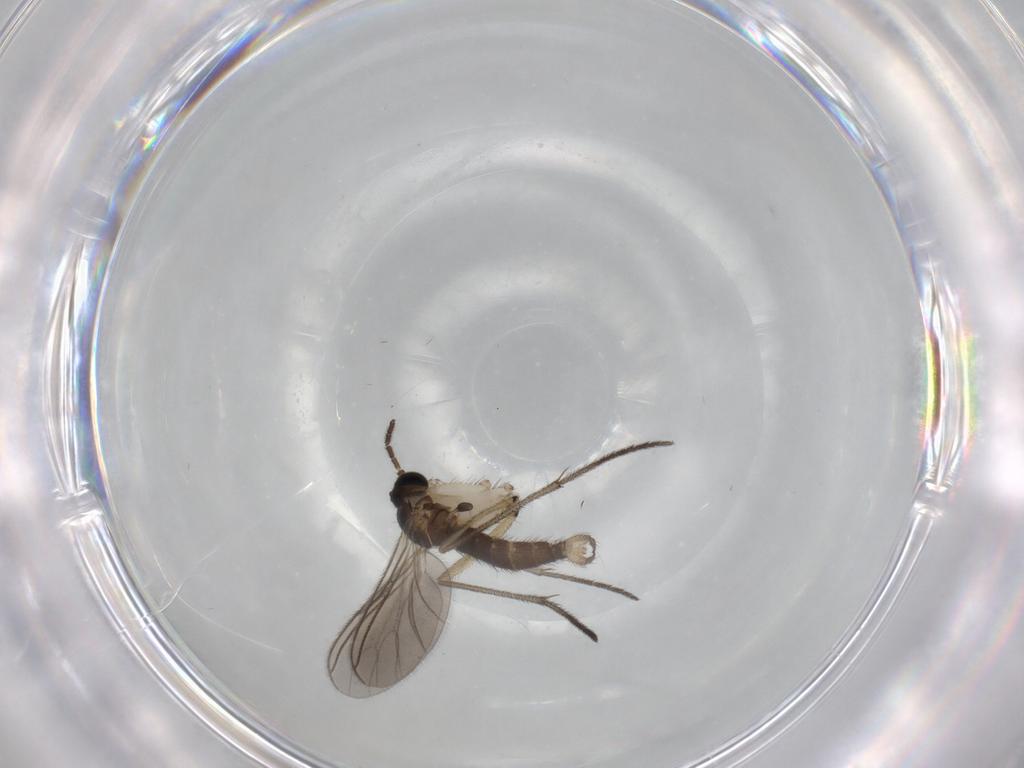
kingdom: Animalia
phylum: Arthropoda
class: Insecta
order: Diptera
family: Sciaridae
